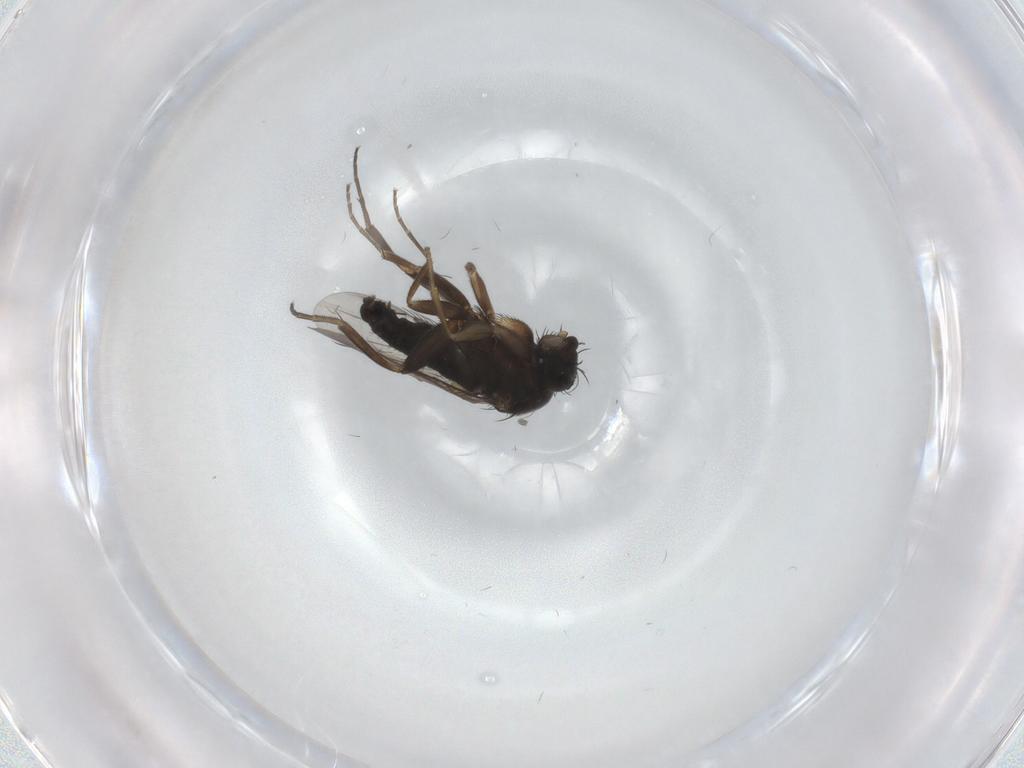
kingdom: Animalia
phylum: Arthropoda
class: Insecta
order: Diptera
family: Phoridae
